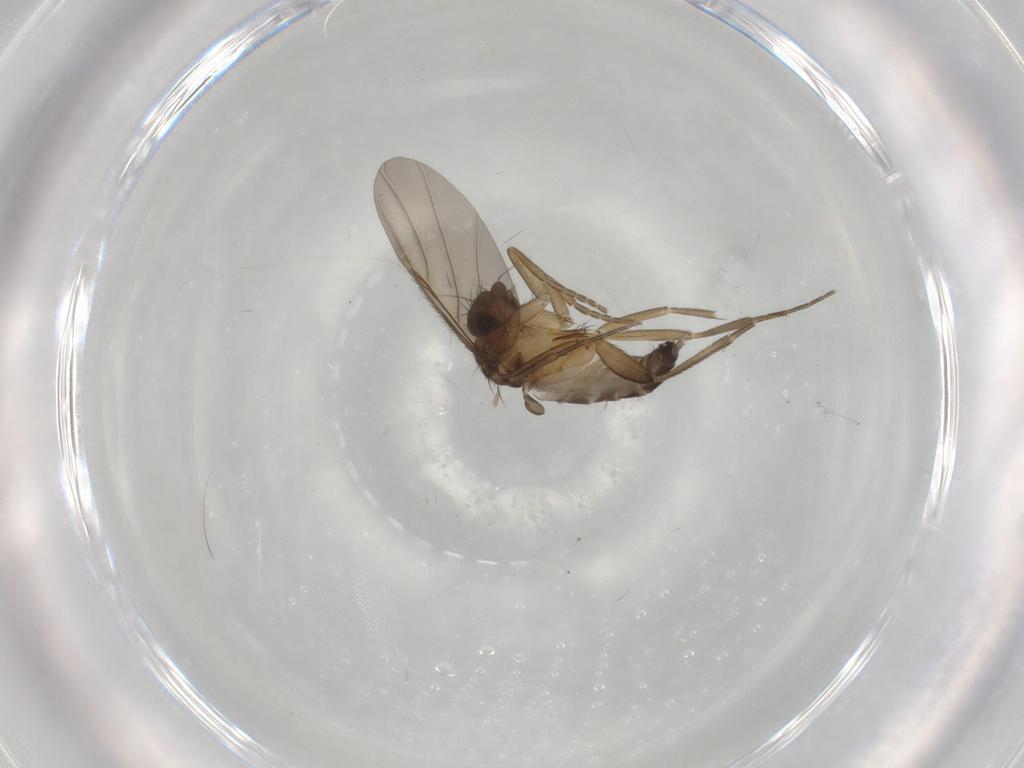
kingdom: Animalia
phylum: Arthropoda
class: Insecta
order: Diptera
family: Phoridae
